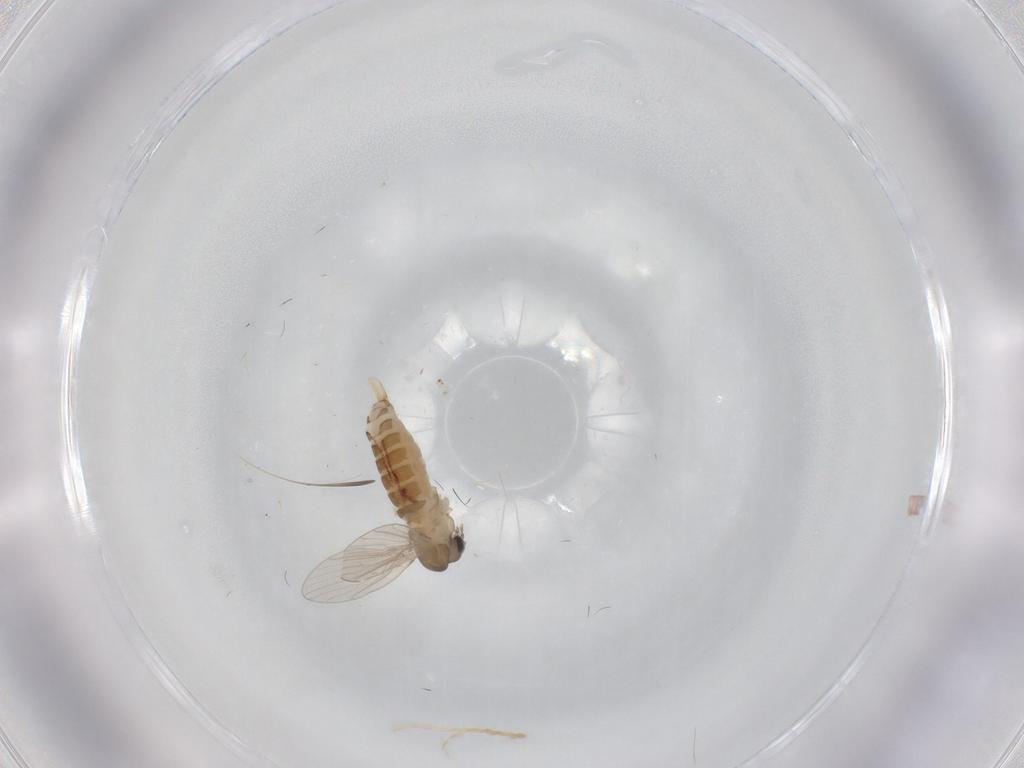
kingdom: Animalia
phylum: Arthropoda
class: Insecta
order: Diptera
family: Psychodidae
